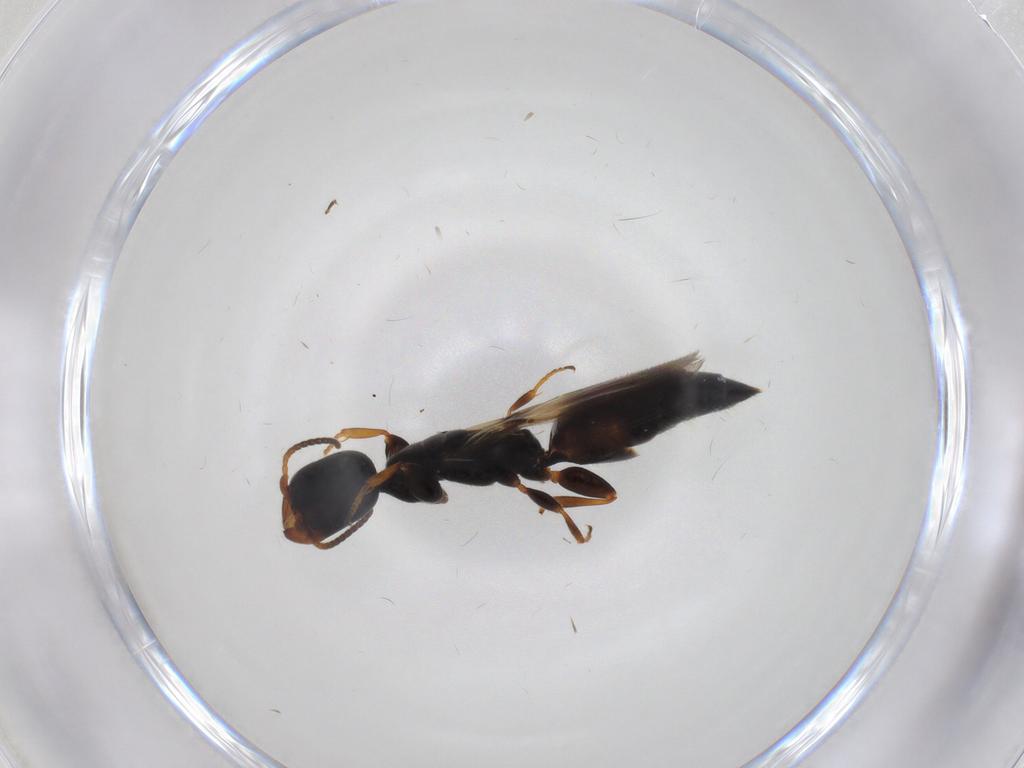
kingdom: Animalia
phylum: Arthropoda
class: Insecta
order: Hymenoptera
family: Bethylidae
